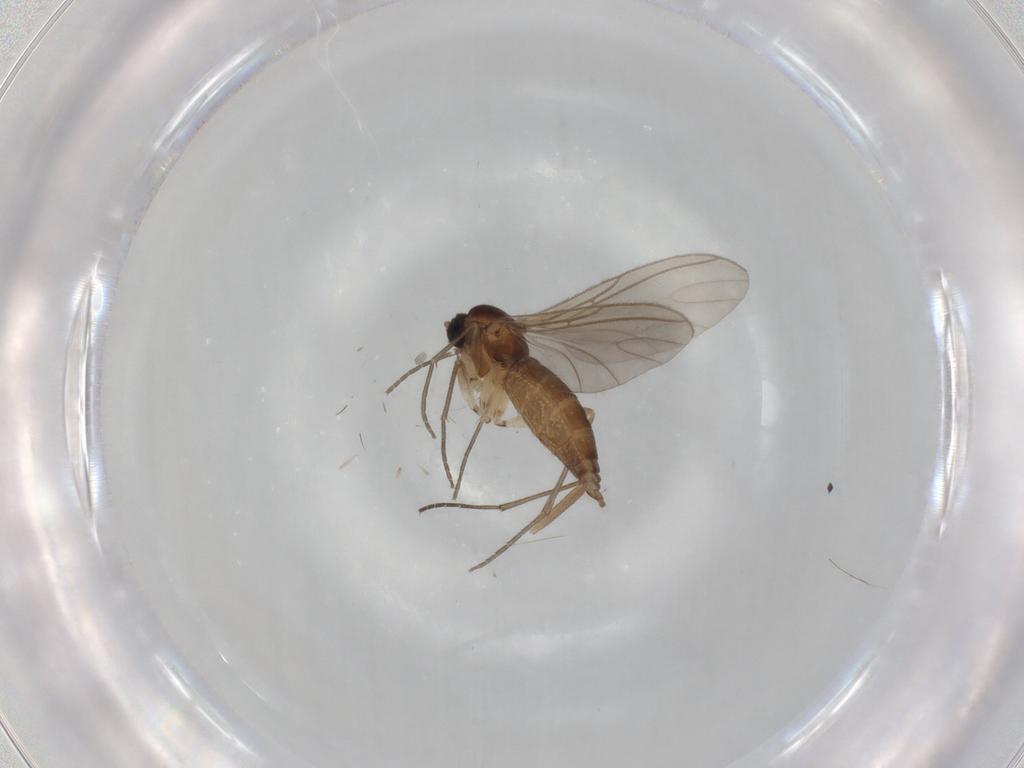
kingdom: Animalia
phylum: Arthropoda
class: Insecta
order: Diptera
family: Sciaridae
